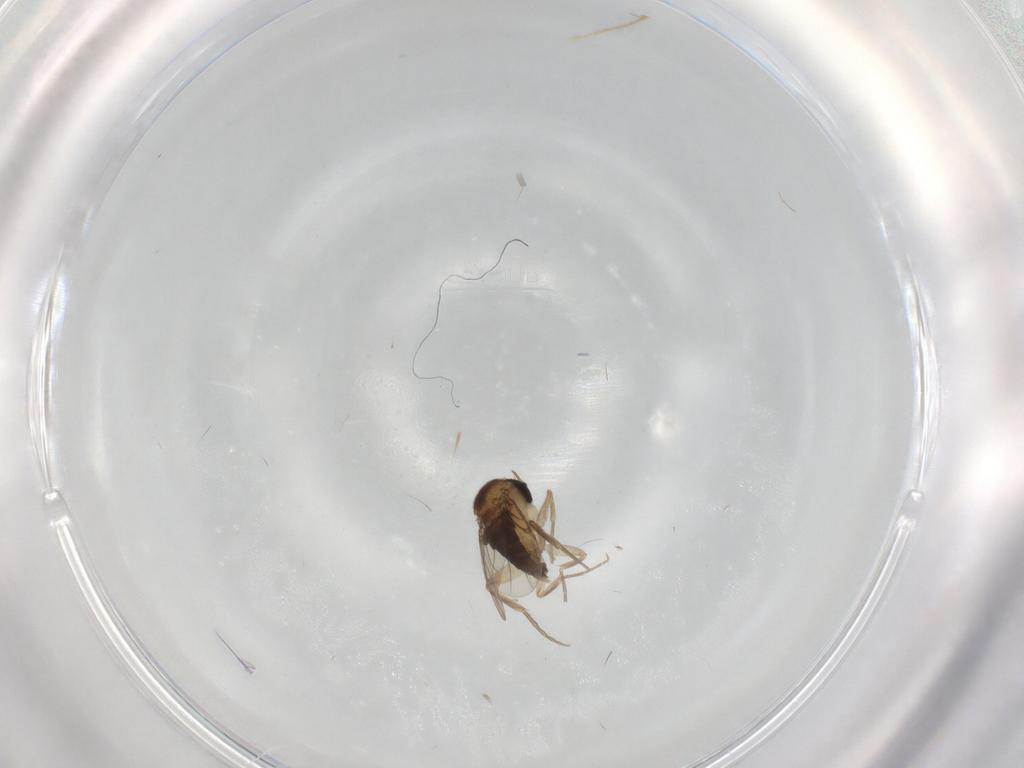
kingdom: Animalia
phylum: Arthropoda
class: Insecta
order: Diptera
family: Phoridae
